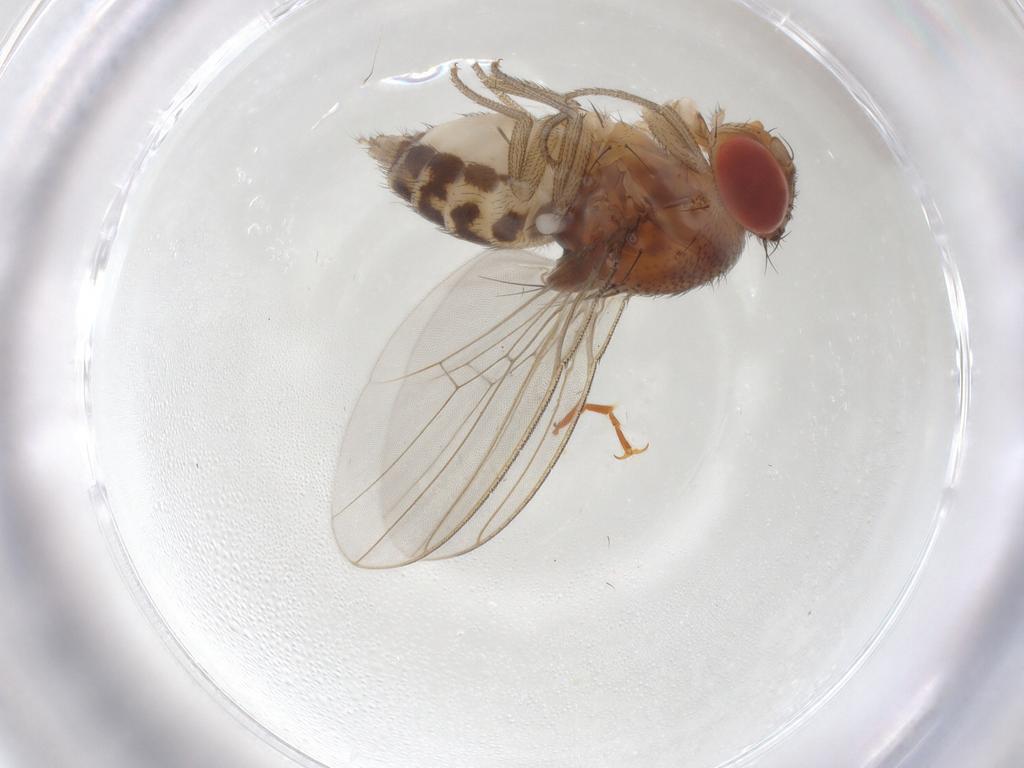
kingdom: Animalia
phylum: Arthropoda
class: Insecta
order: Diptera
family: Drosophilidae
